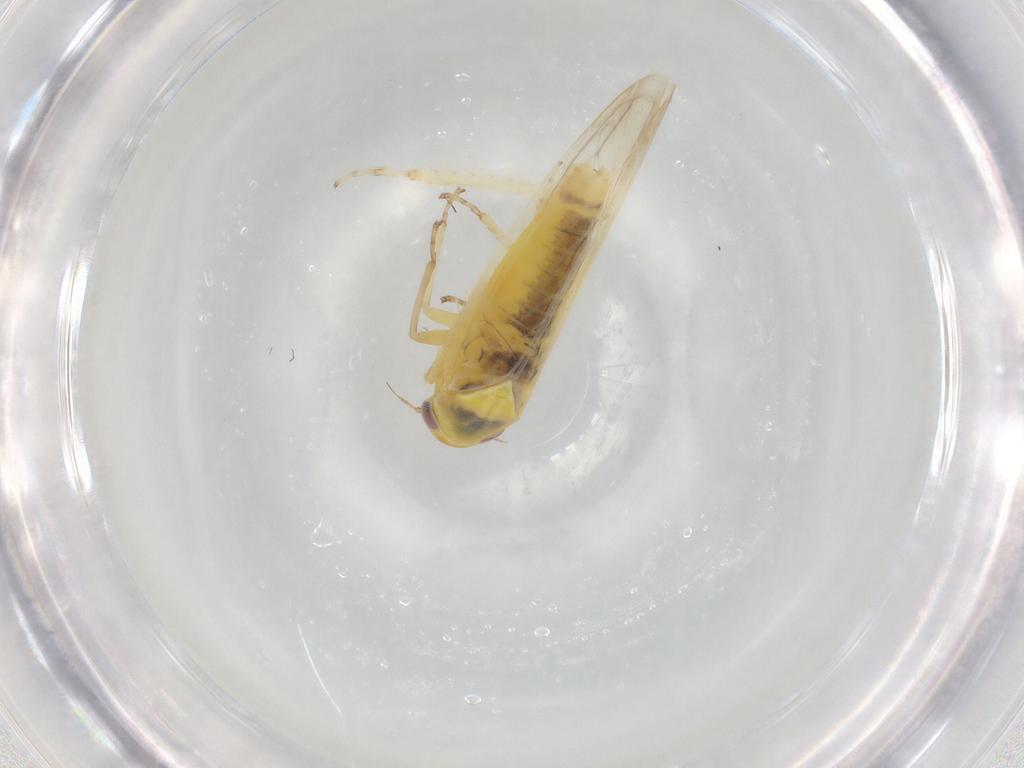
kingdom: Animalia
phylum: Arthropoda
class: Insecta
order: Hemiptera
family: Cicadellidae
